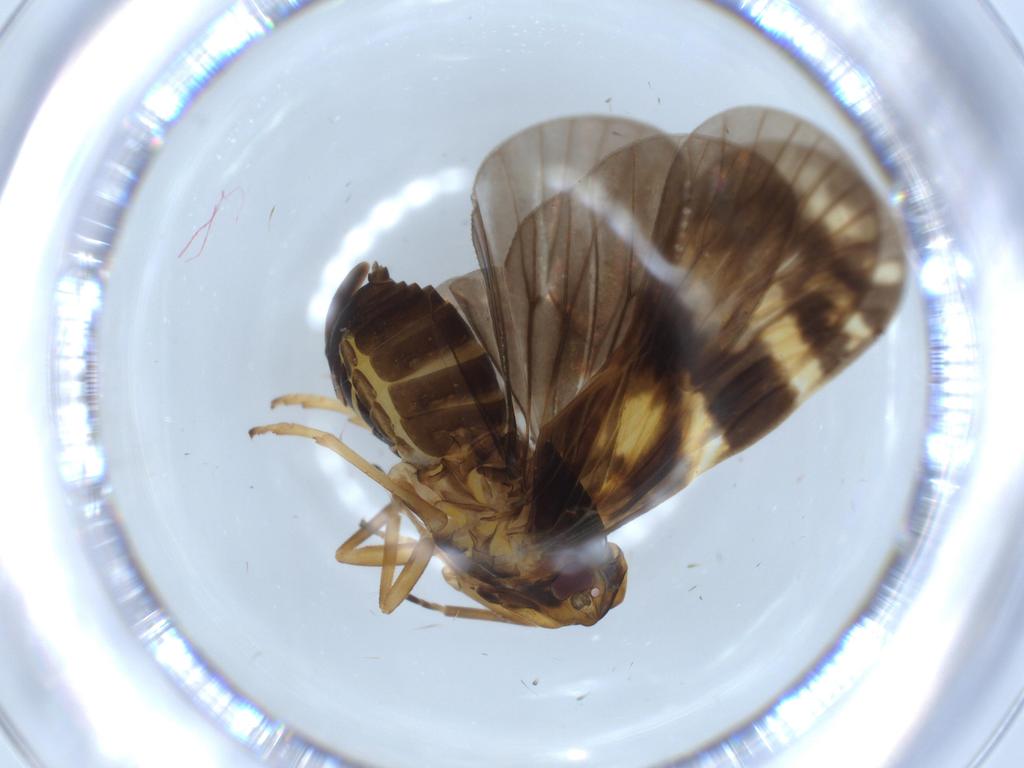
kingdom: Animalia
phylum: Arthropoda
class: Insecta
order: Hemiptera
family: Cixiidae
